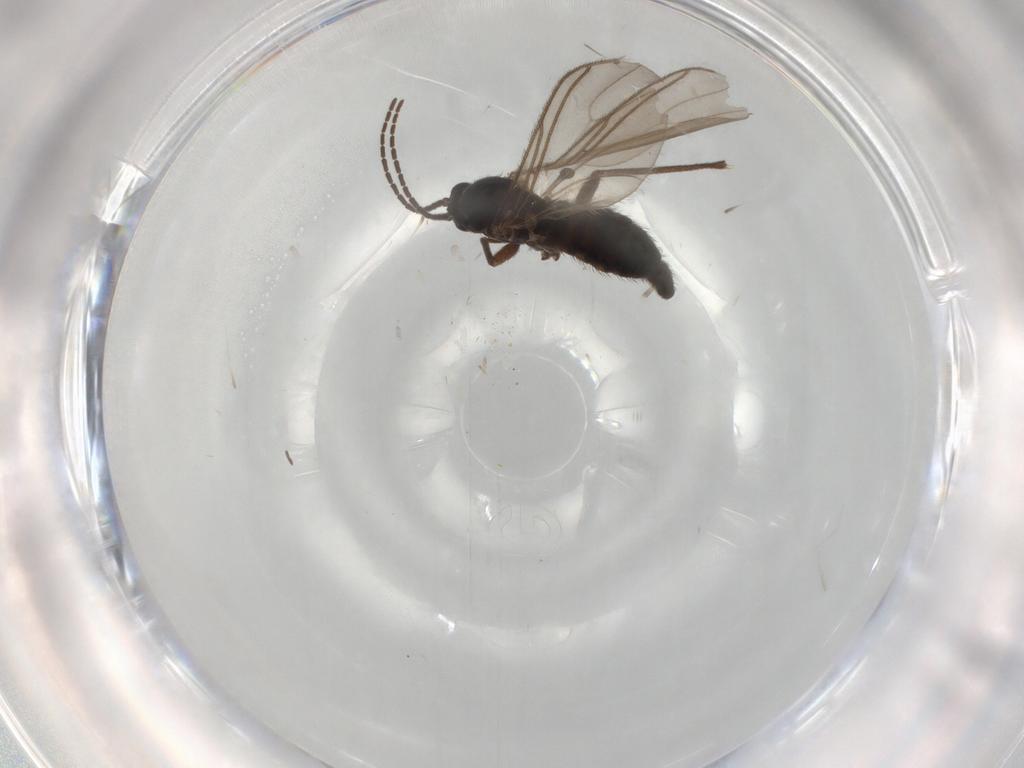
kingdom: Animalia
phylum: Arthropoda
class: Insecta
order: Diptera
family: Sciaridae
